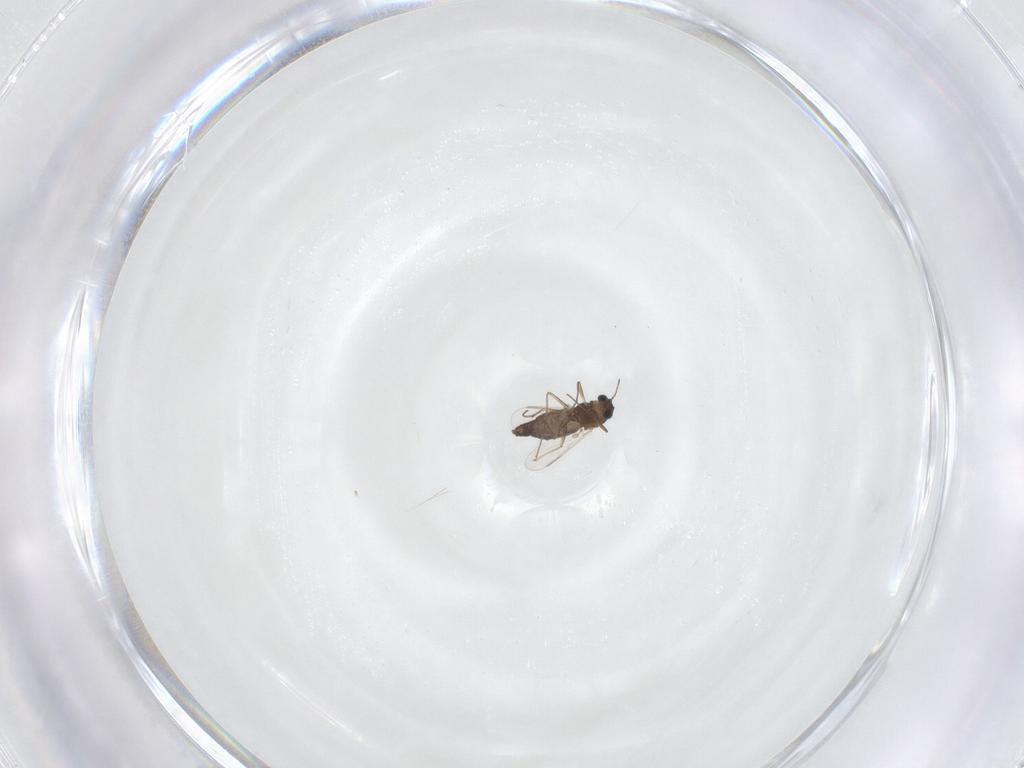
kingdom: Animalia
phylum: Arthropoda
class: Insecta
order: Diptera
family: Chironomidae
